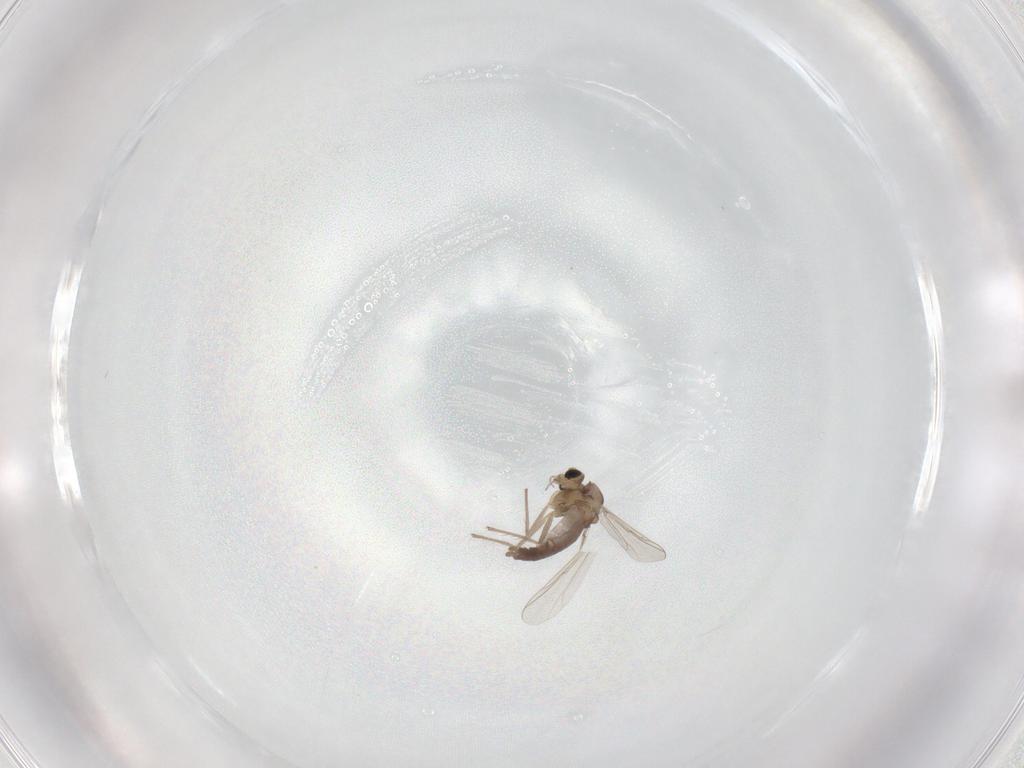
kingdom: Animalia
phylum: Arthropoda
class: Insecta
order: Diptera
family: Chironomidae
